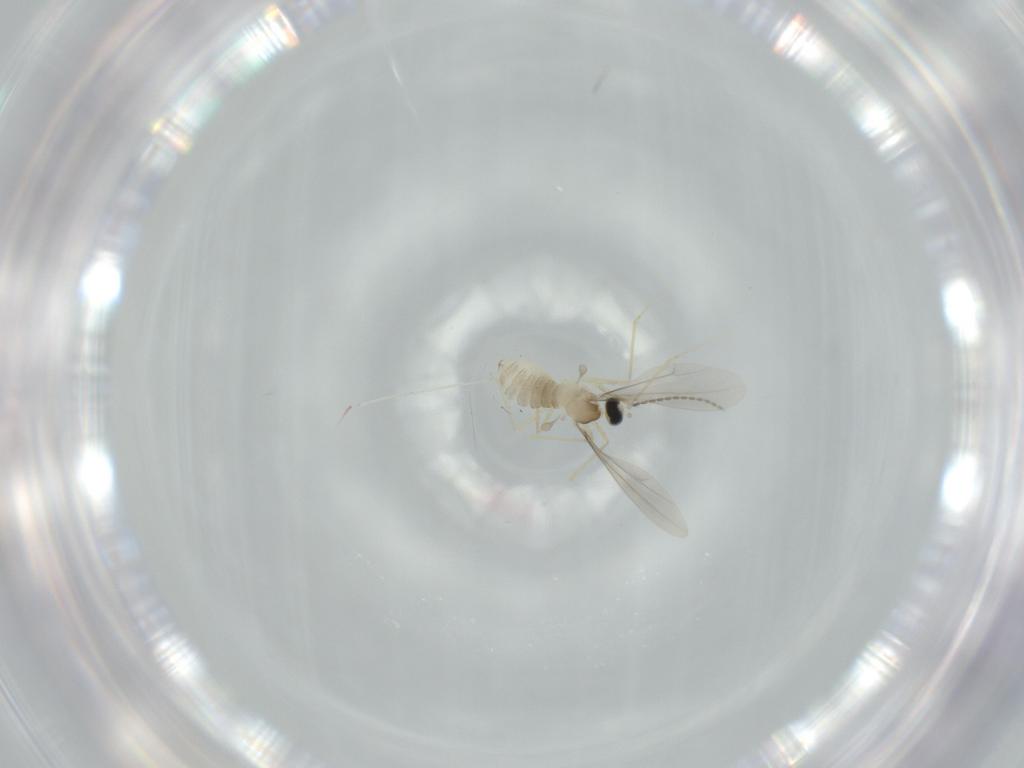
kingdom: Animalia
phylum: Arthropoda
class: Insecta
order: Diptera
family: Cecidomyiidae
